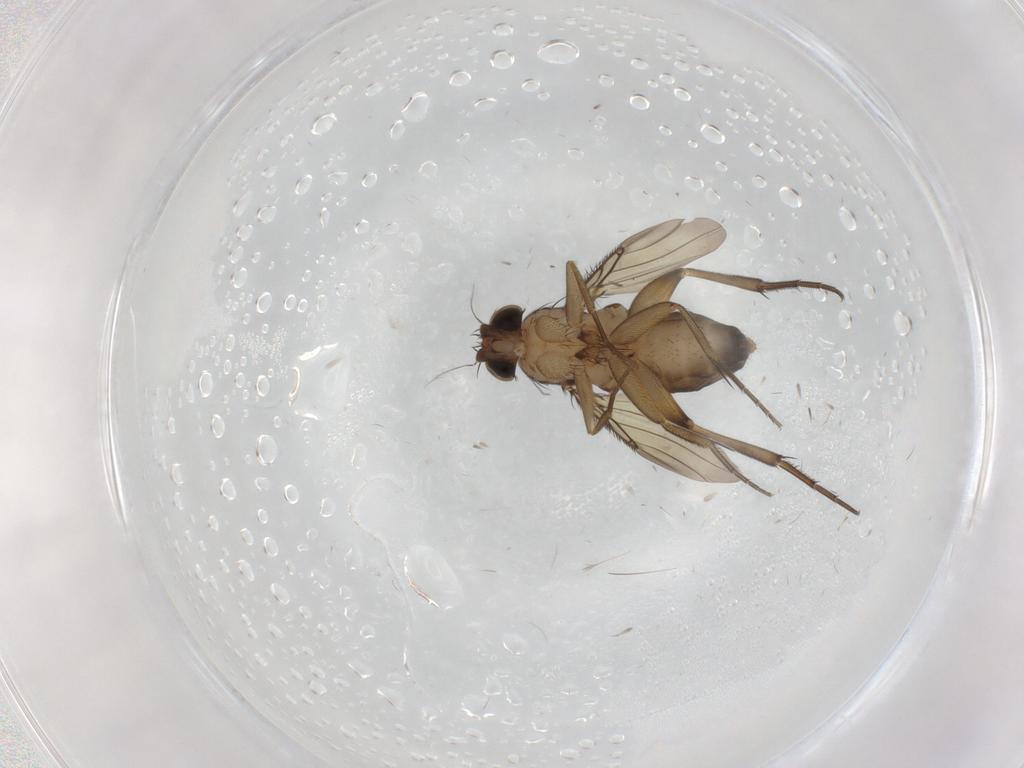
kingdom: Animalia
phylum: Arthropoda
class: Insecta
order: Diptera
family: Phoridae
